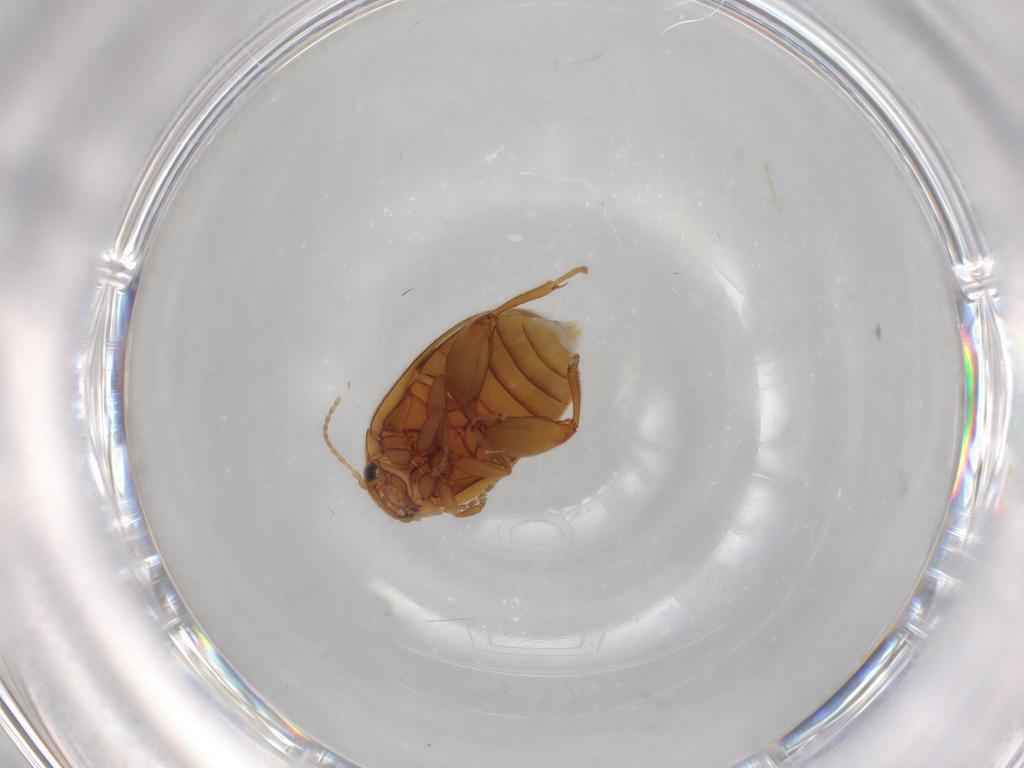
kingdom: Animalia
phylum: Arthropoda
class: Insecta
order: Coleoptera
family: Scirtidae
